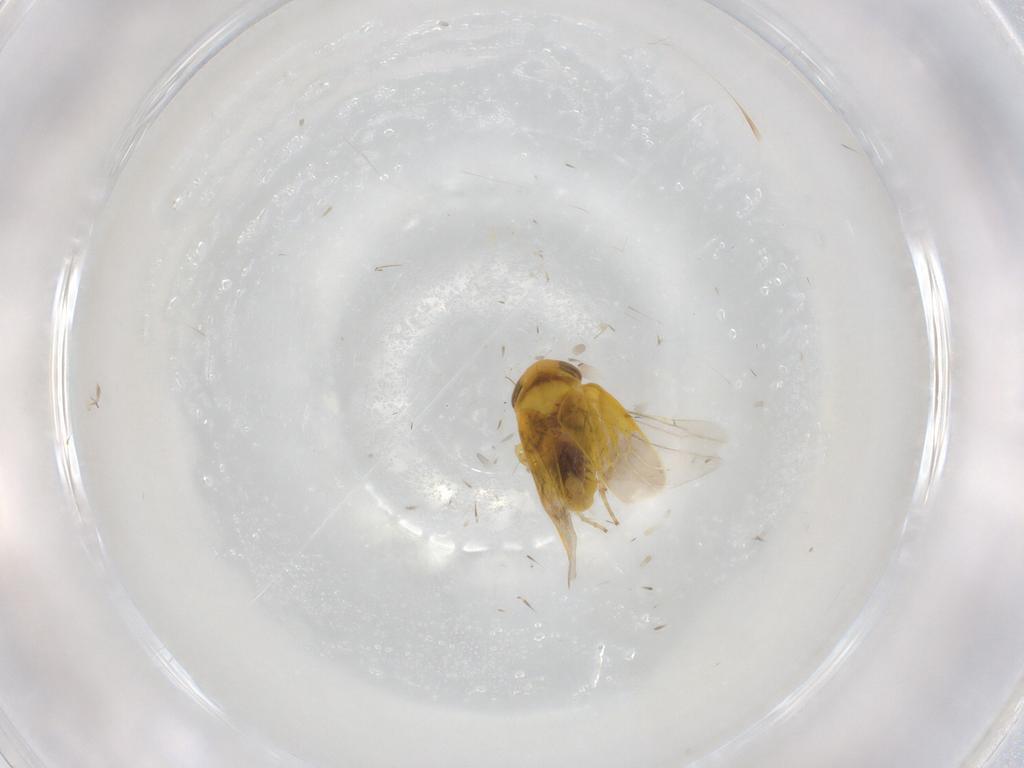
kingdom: Animalia
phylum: Arthropoda
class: Insecta
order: Hemiptera
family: Cicadellidae
